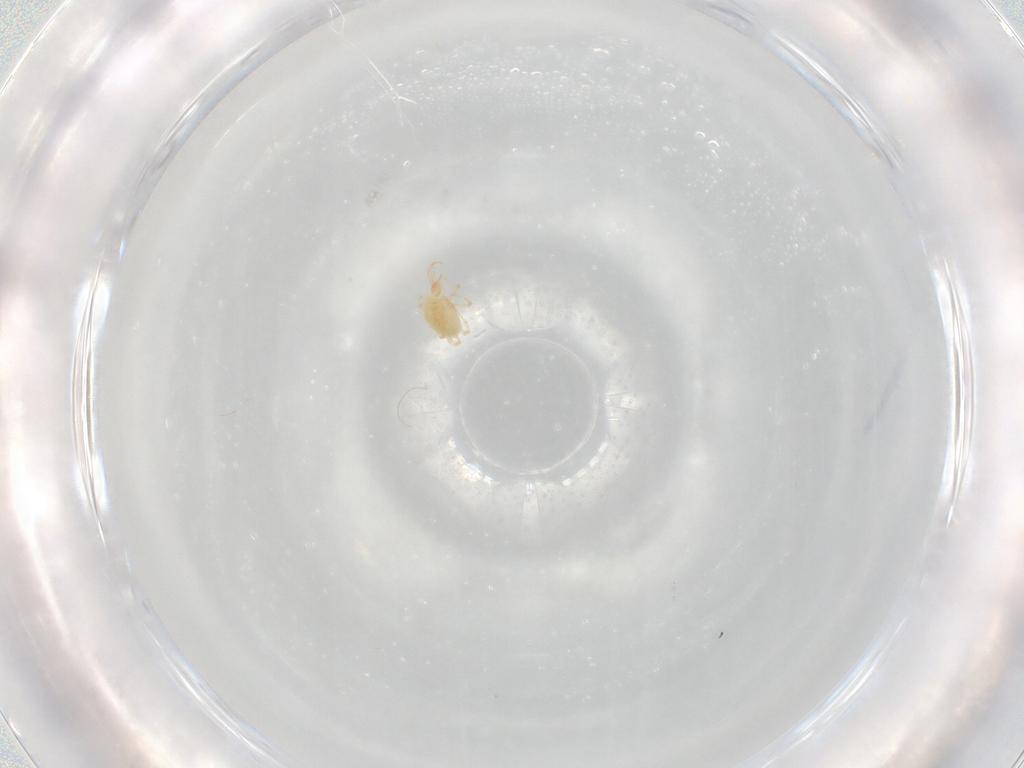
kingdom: Animalia
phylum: Arthropoda
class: Arachnida
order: Trombidiformes
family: Cunaxidae
